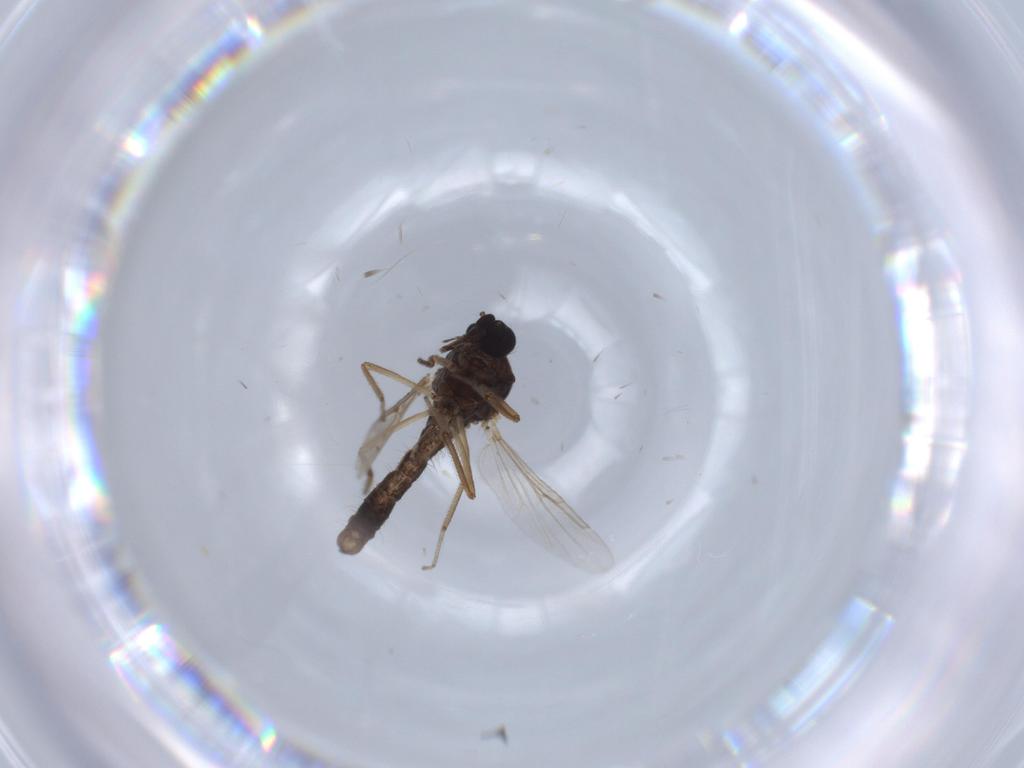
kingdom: Animalia
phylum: Arthropoda
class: Insecta
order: Diptera
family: Ceratopogonidae
